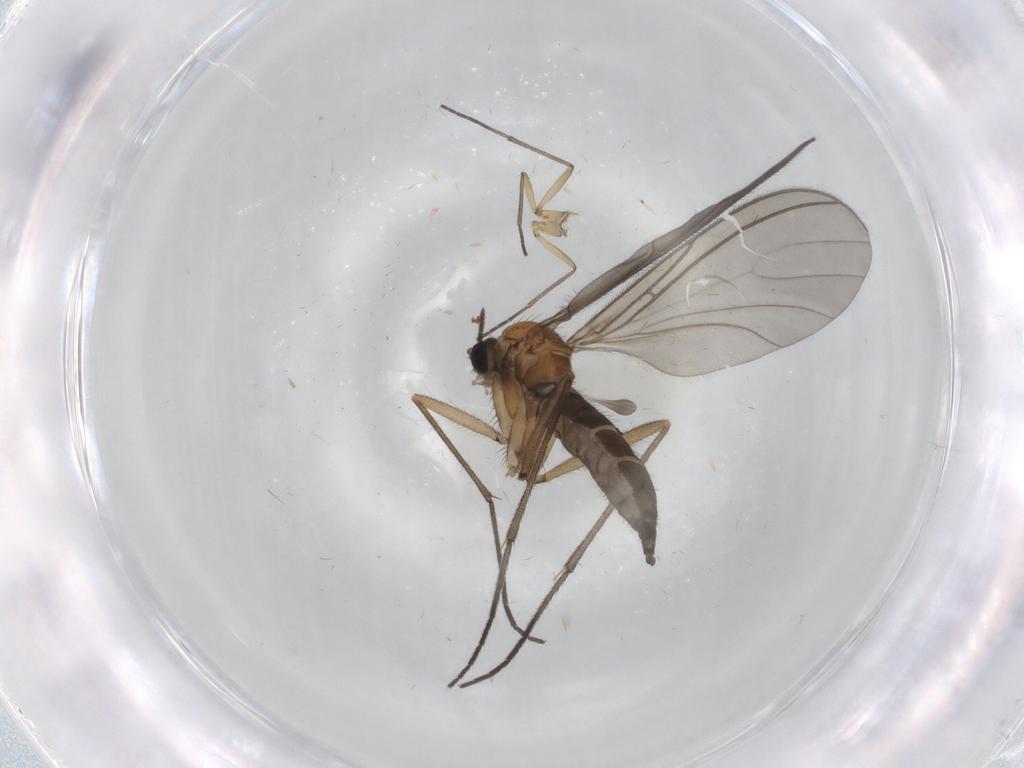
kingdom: Animalia
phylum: Arthropoda
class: Insecta
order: Diptera
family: Sciaridae
